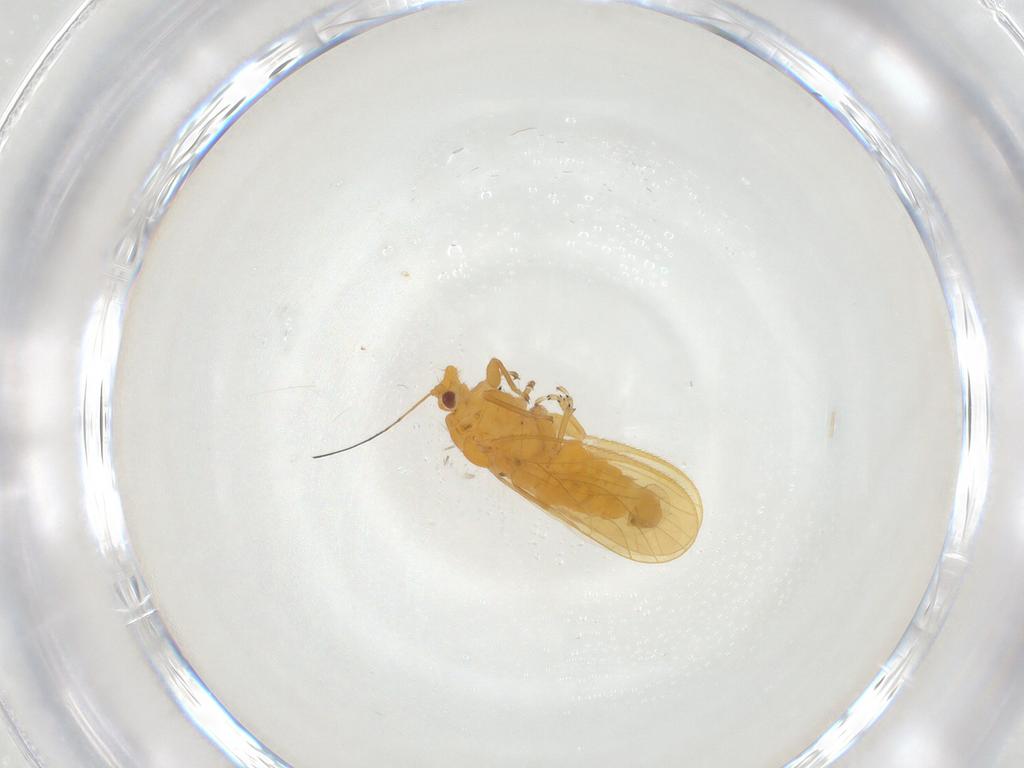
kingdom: Animalia
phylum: Arthropoda
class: Insecta
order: Hemiptera
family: Psyllidae
